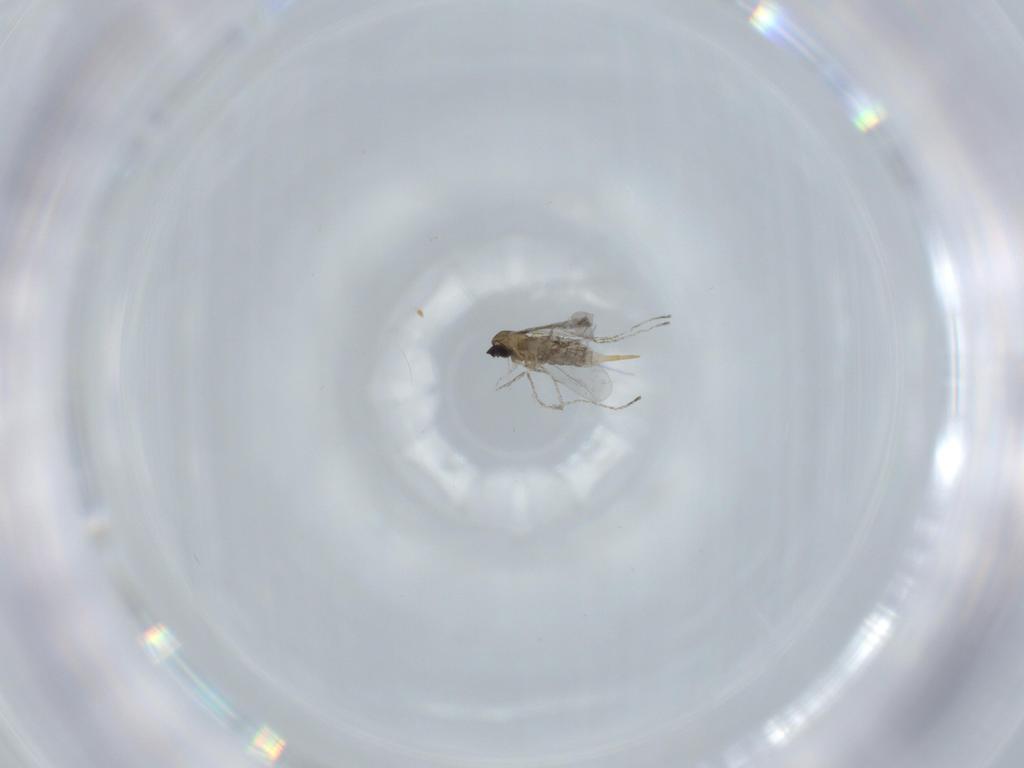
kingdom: Animalia
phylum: Arthropoda
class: Insecta
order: Diptera
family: Cecidomyiidae
